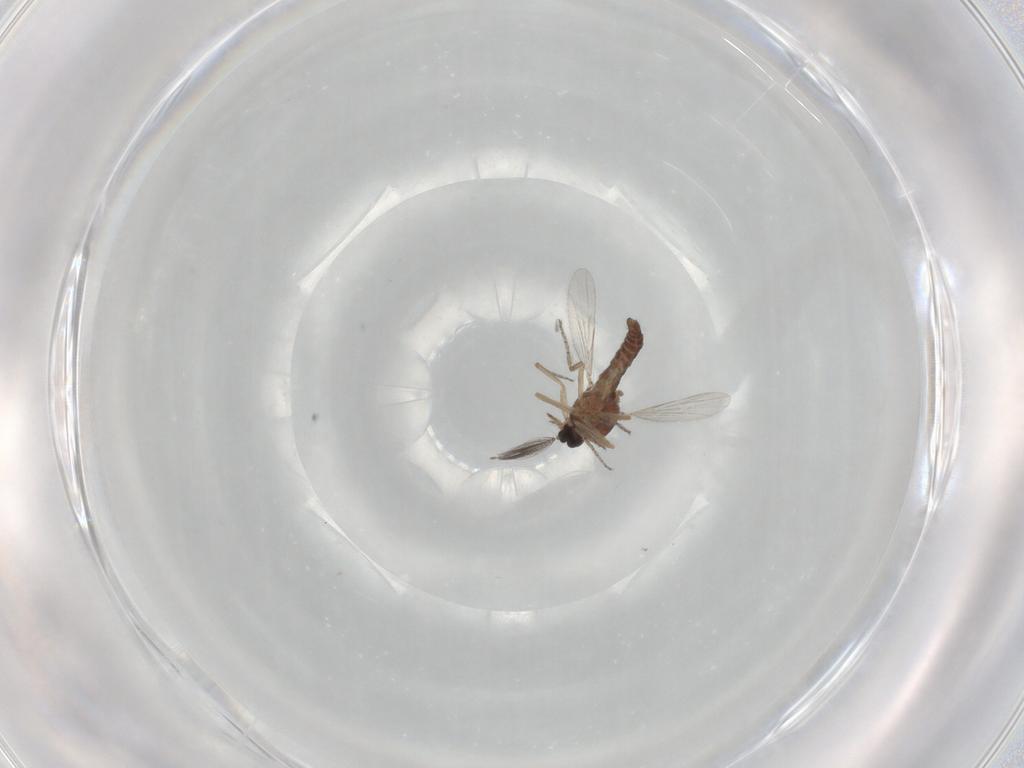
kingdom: Animalia
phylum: Arthropoda
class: Insecta
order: Diptera
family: Ceratopogonidae
